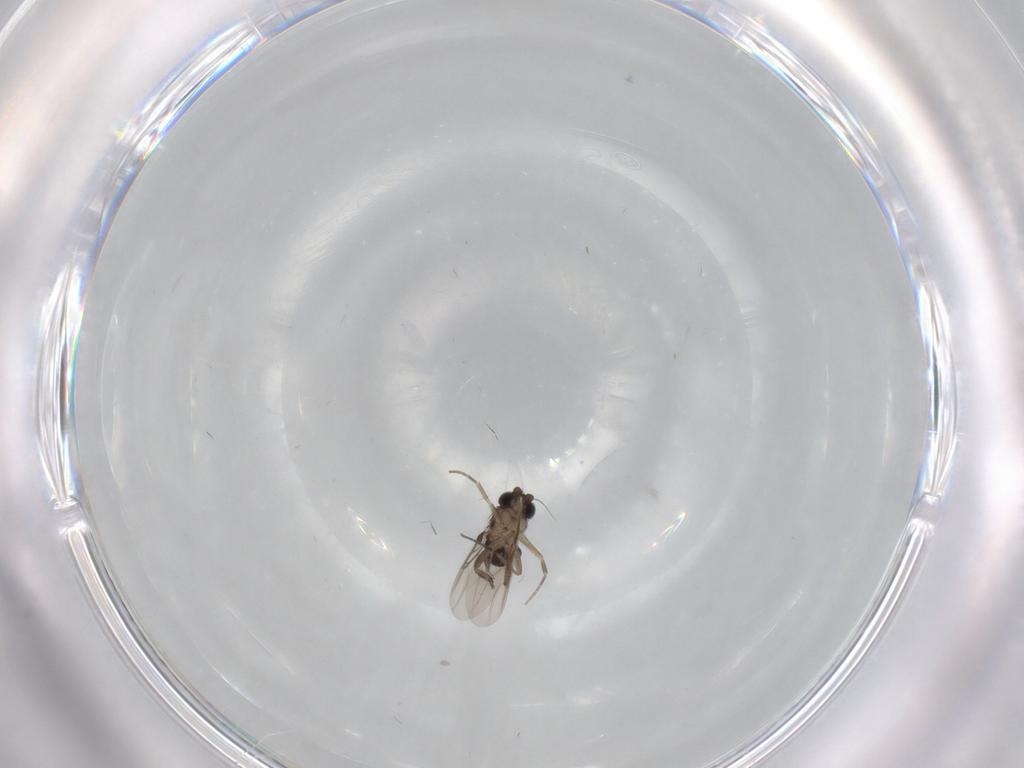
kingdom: Animalia
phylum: Arthropoda
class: Insecta
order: Diptera
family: Phoridae
